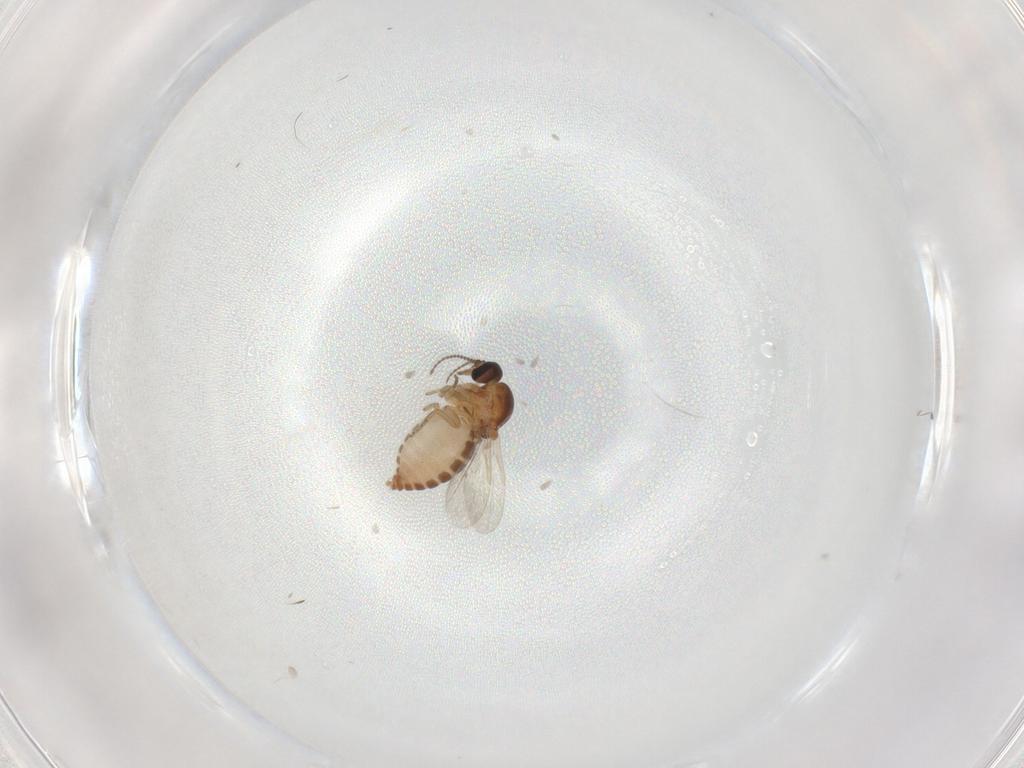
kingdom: Animalia
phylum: Arthropoda
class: Insecta
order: Diptera
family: Ceratopogonidae
